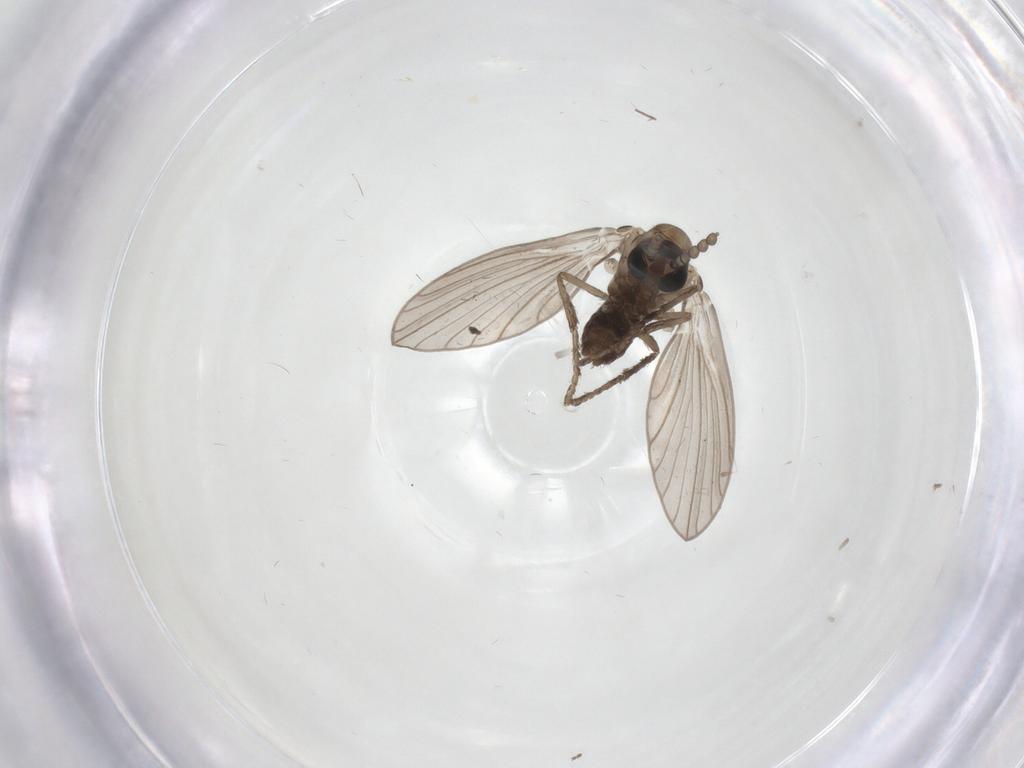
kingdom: Animalia
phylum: Arthropoda
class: Insecta
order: Diptera
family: Psychodidae
